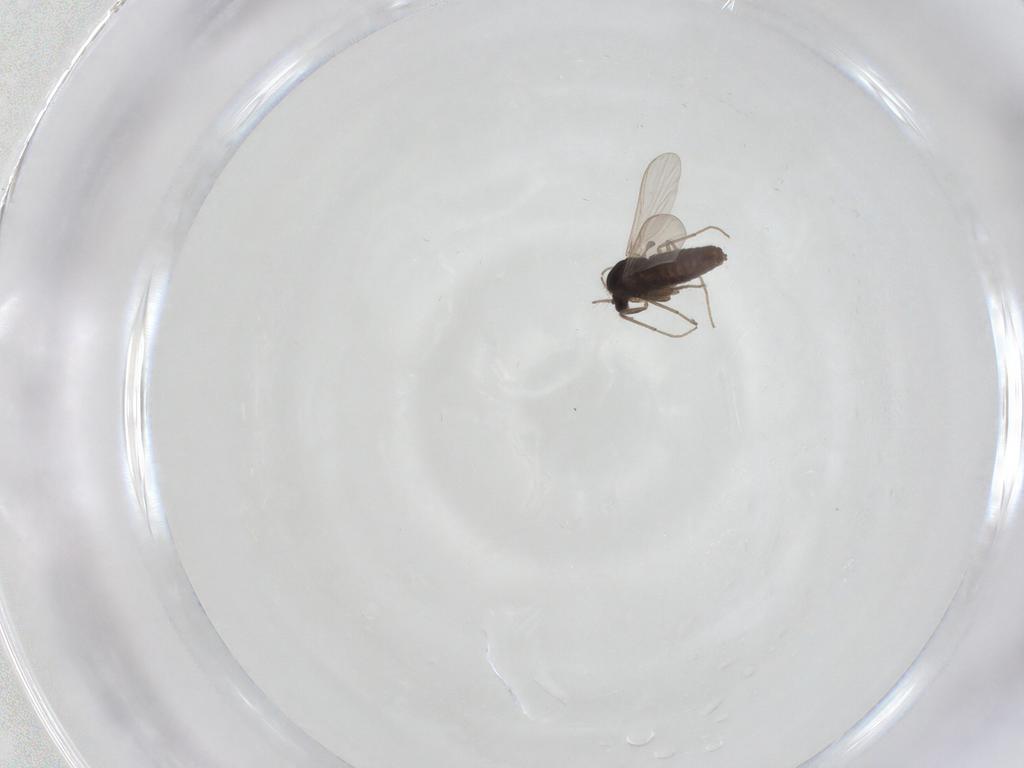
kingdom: Animalia
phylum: Arthropoda
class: Insecta
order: Diptera
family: Chironomidae
